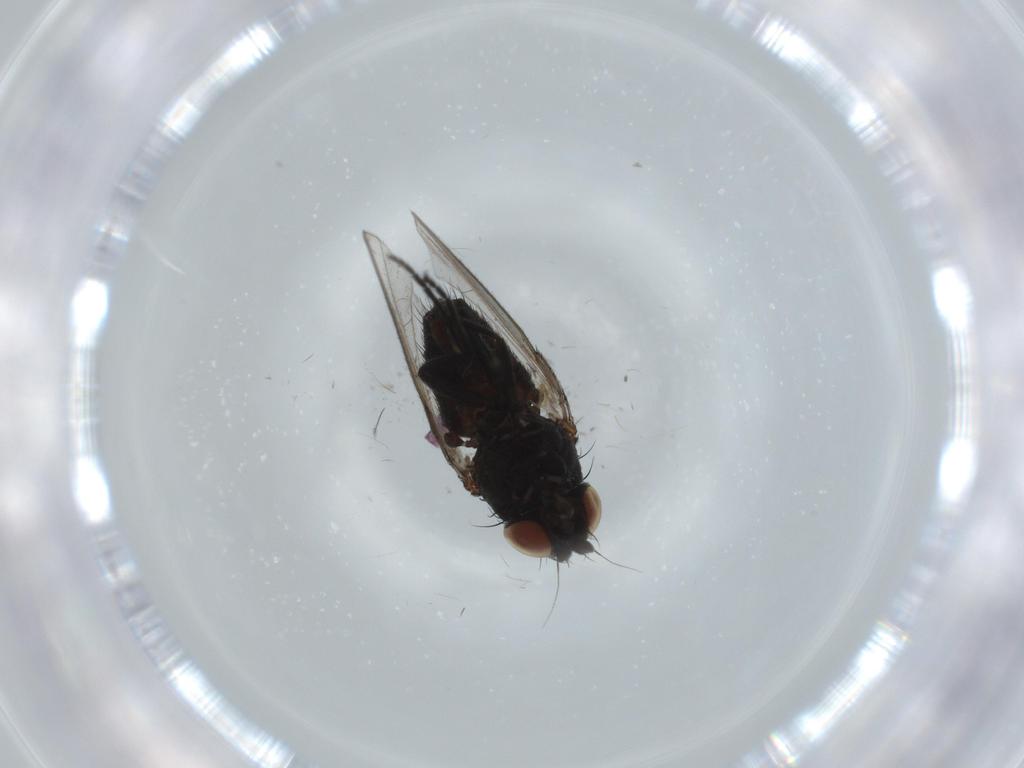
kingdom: Animalia
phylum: Arthropoda
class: Insecta
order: Diptera
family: Milichiidae
